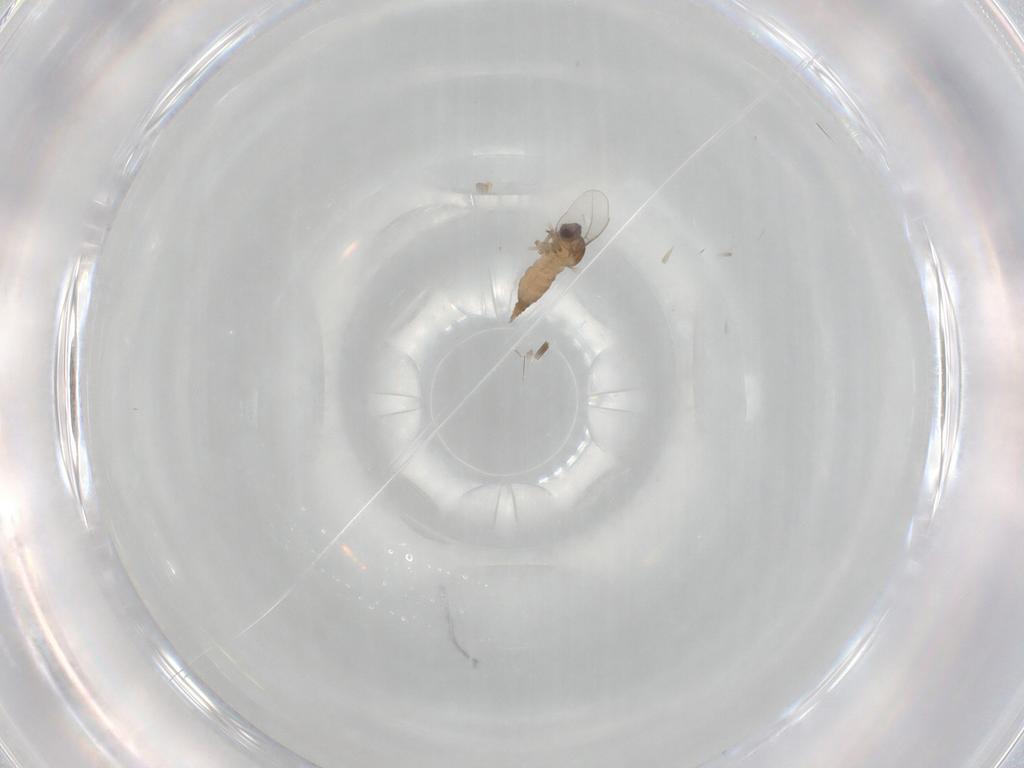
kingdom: Animalia
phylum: Arthropoda
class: Insecta
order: Diptera
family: Cecidomyiidae
